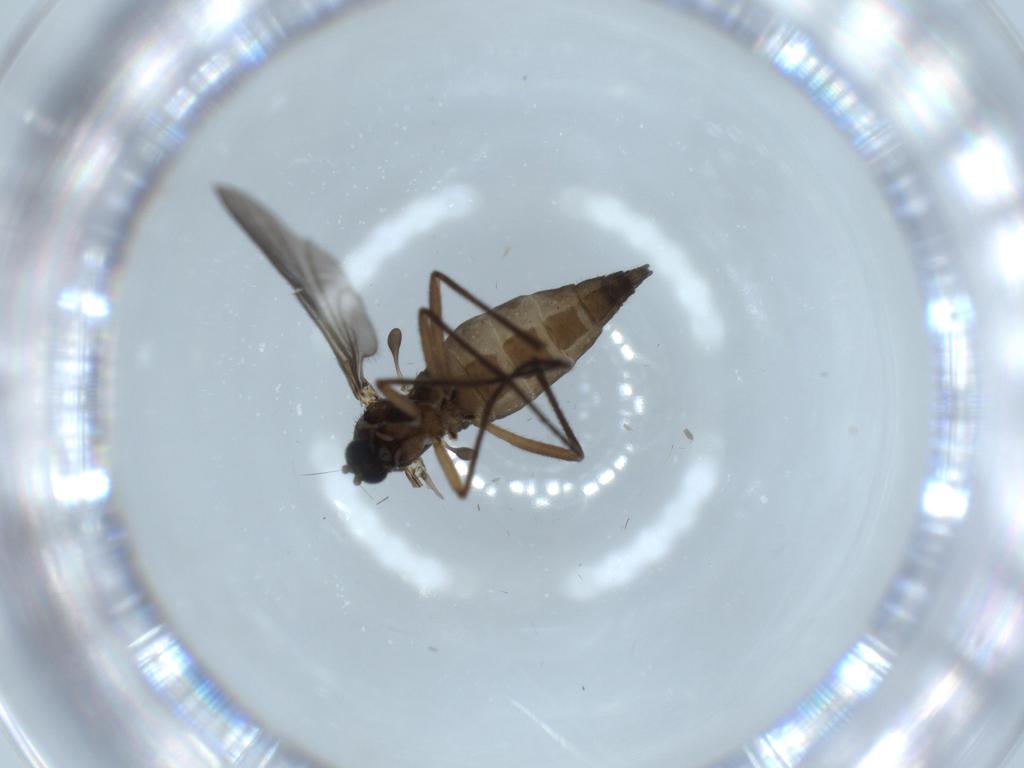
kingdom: Animalia
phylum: Arthropoda
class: Insecta
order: Diptera
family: Sciaridae
